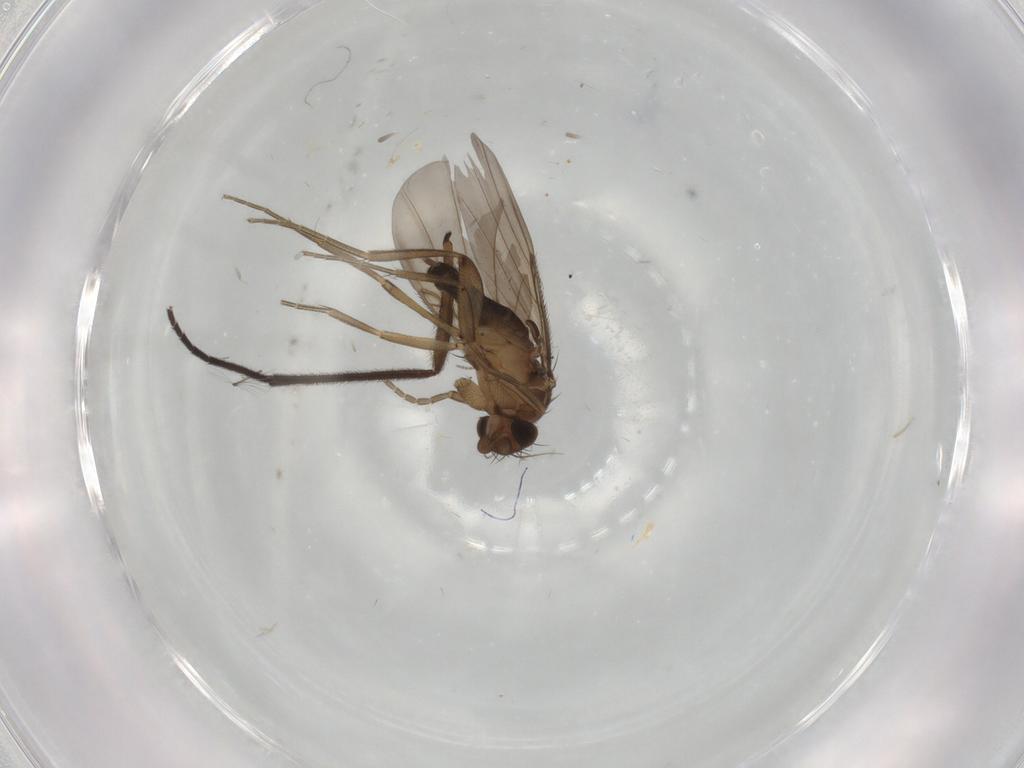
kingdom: Animalia
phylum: Arthropoda
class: Insecta
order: Diptera
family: Phoridae
